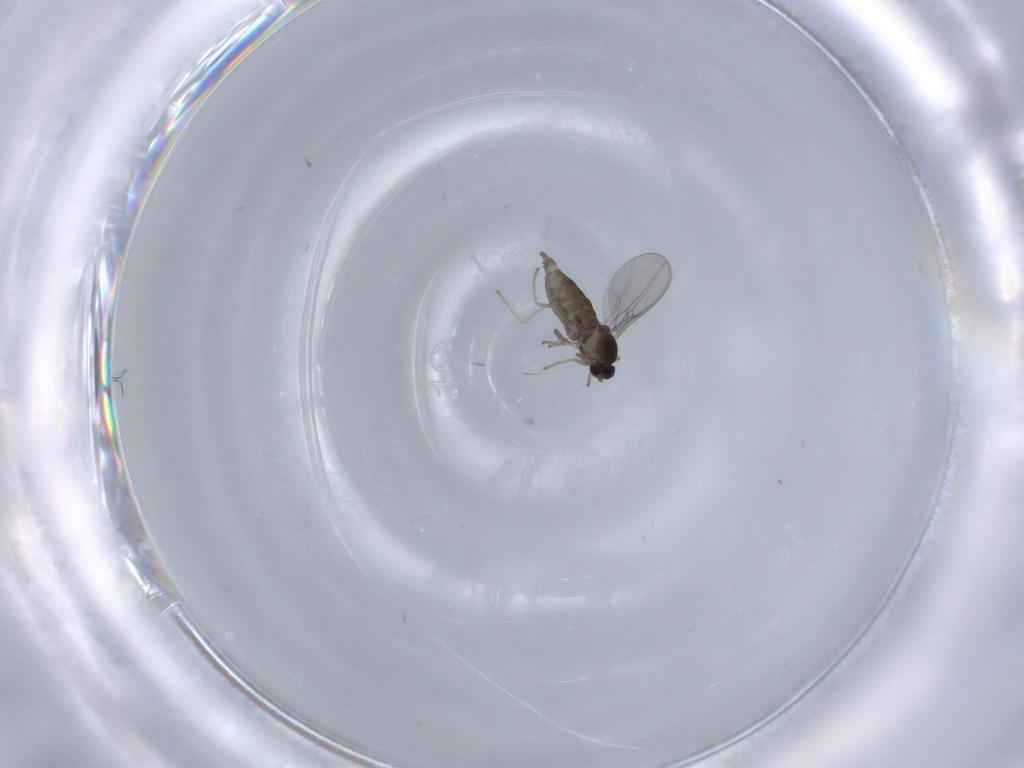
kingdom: Animalia
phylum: Arthropoda
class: Insecta
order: Diptera
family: Cecidomyiidae
